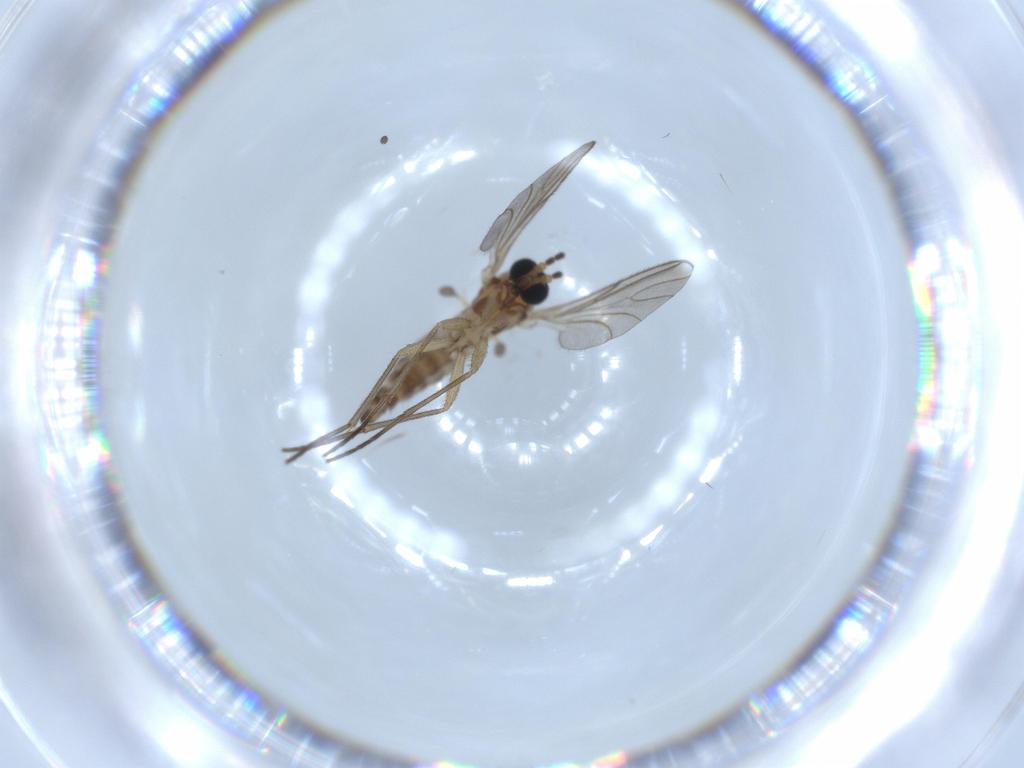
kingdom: Animalia
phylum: Arthropoda
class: Insecta
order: Diptera
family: Sciaridae
